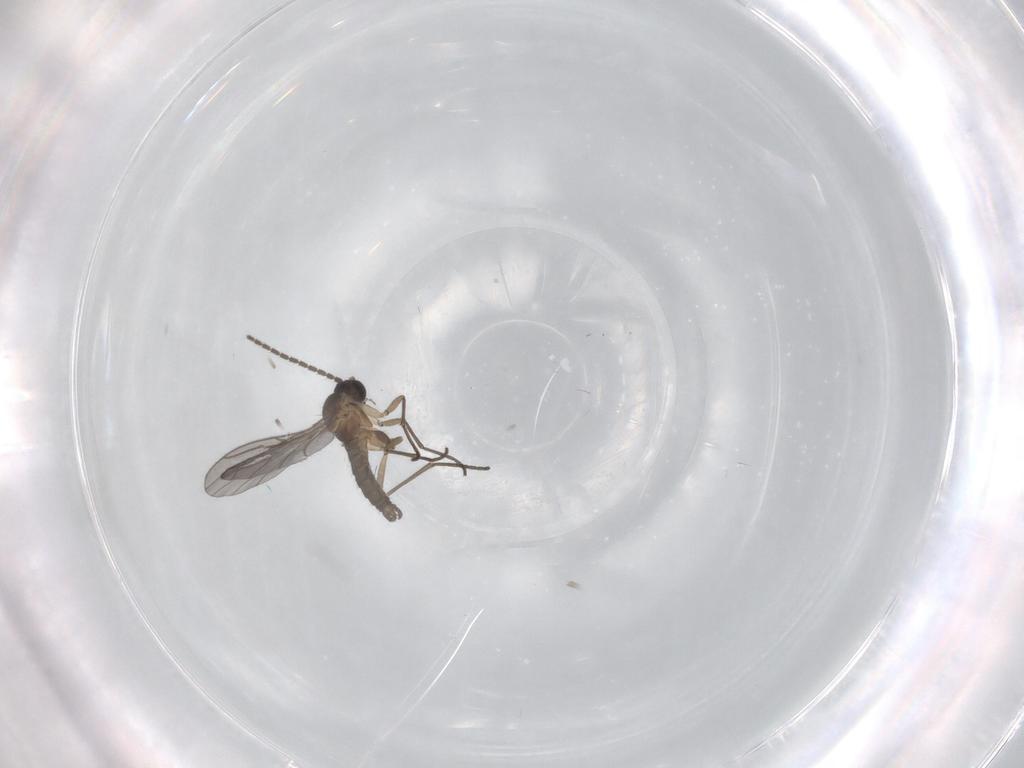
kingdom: Animalia
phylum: Arthropoda
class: Insecta
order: Diptera
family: Sciaridae
